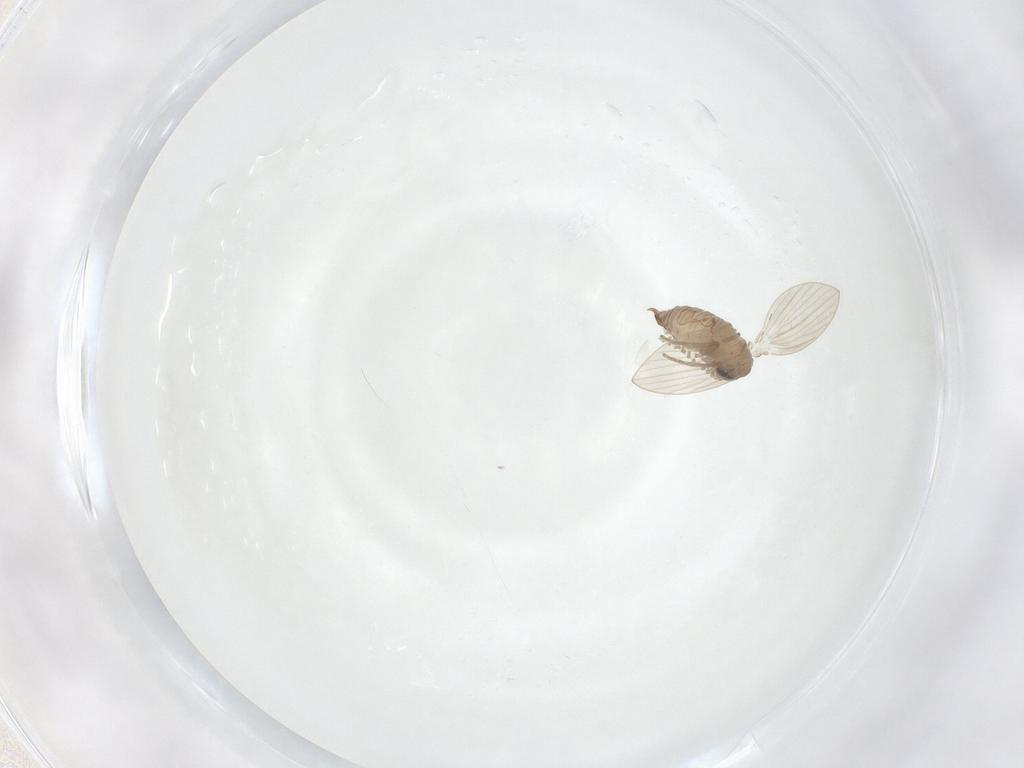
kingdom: Animalia
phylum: Arthropoda
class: Insecta
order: Diptera
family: Psychodidae
